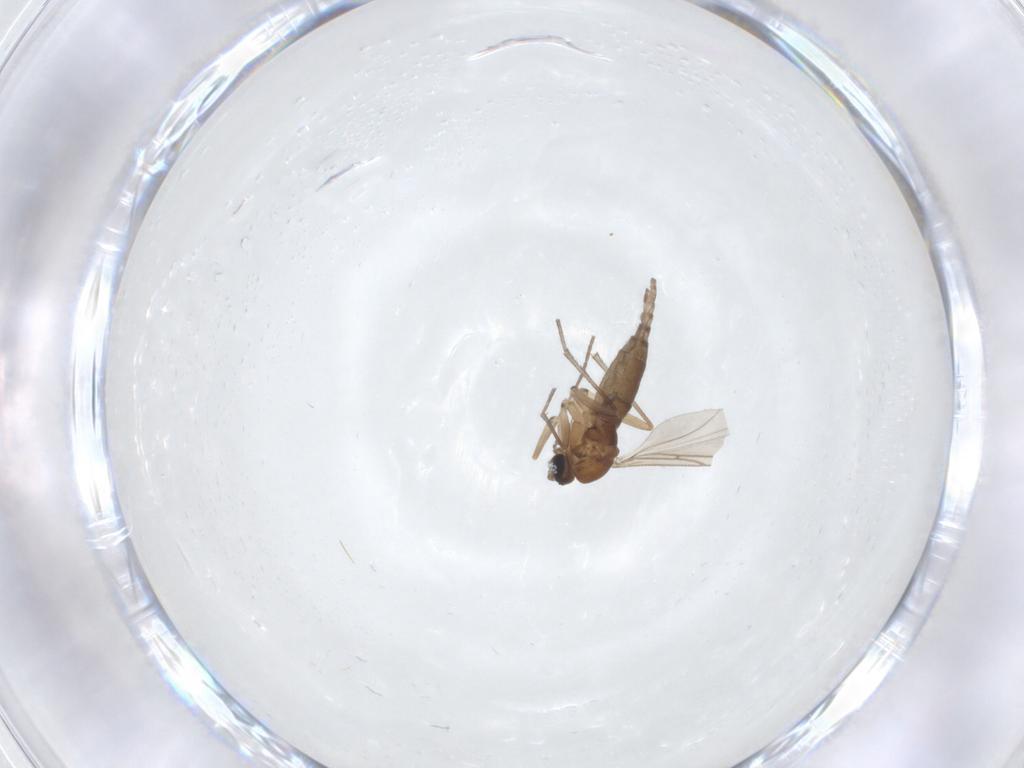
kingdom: Animalia
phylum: Arthropoda
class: Insecta
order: Diptera
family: Sciaridae
